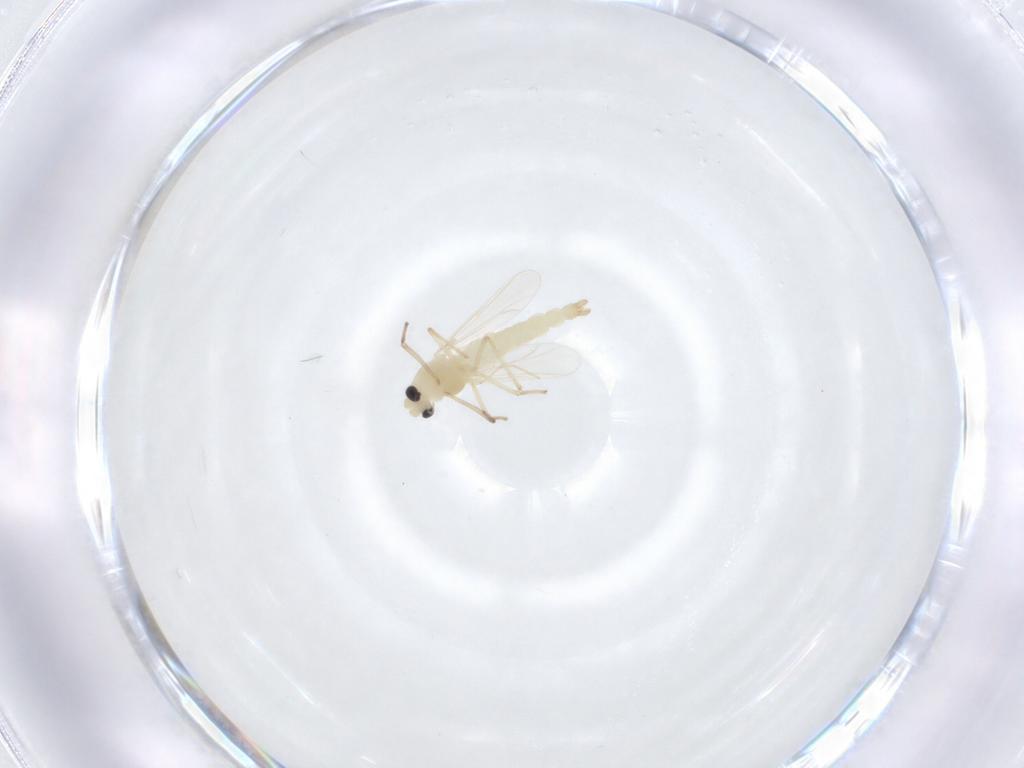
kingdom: Animalia
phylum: Arthropoda
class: Insecta
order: Diptera
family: Chironomidae
